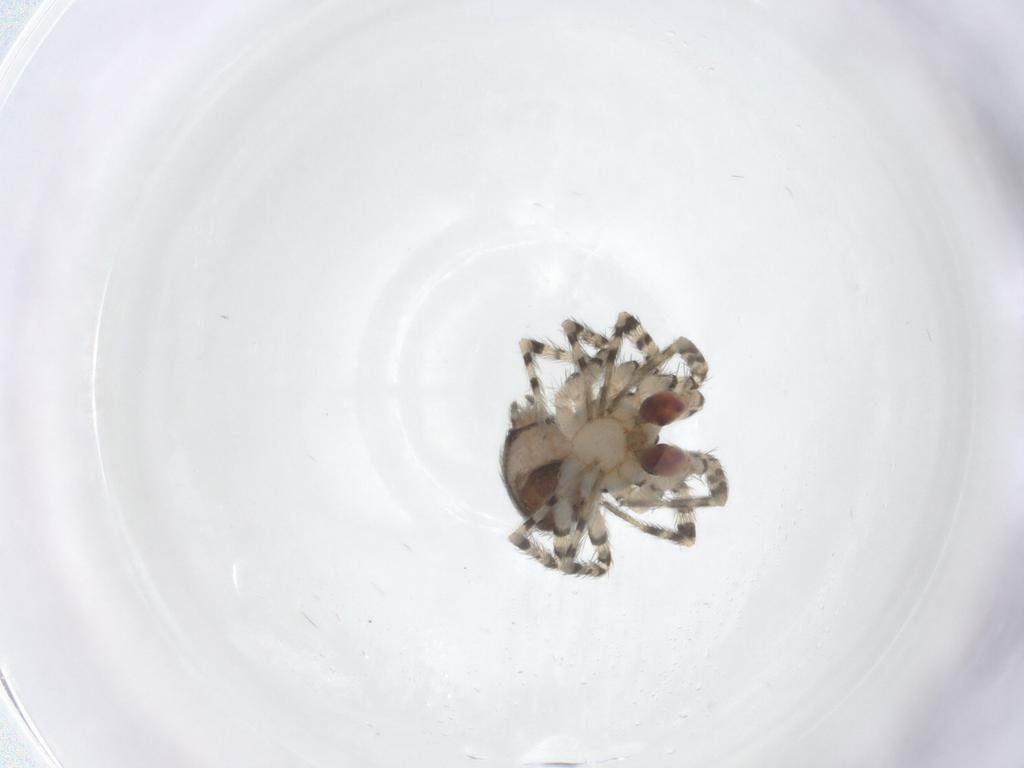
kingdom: Animalia
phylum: Arthropoda
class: Arachnida
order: Araneae
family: Oecobiidae
